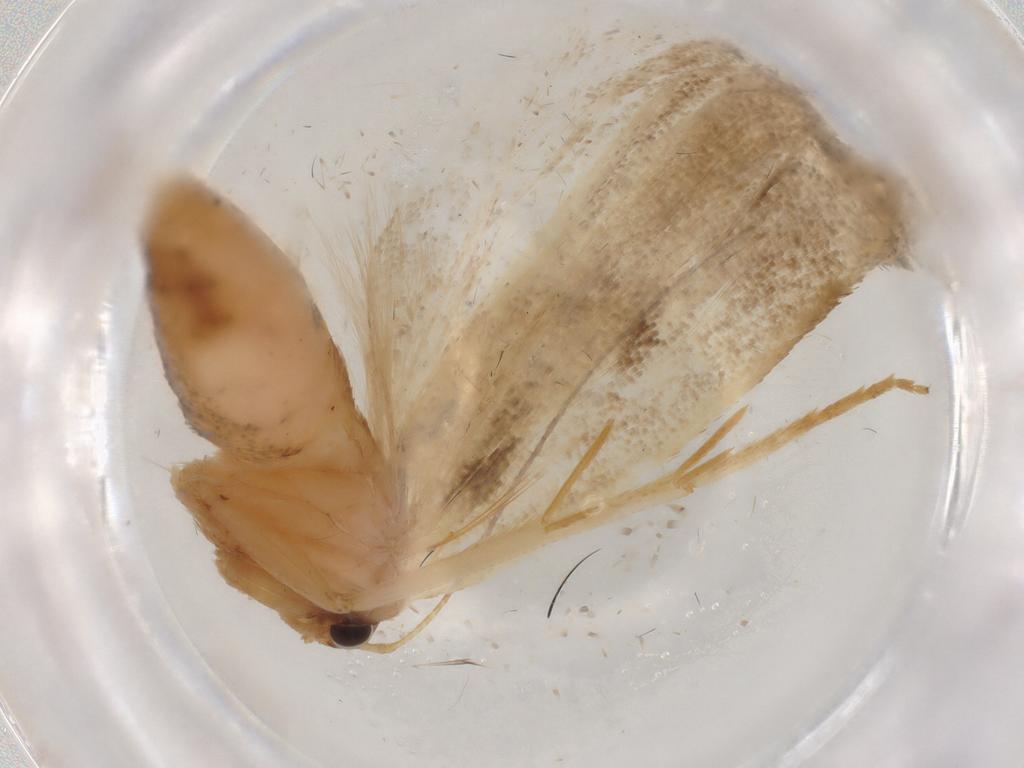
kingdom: Animalia
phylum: Arthropoda
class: Insecta
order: Lepidoptera
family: Gelechiidae
